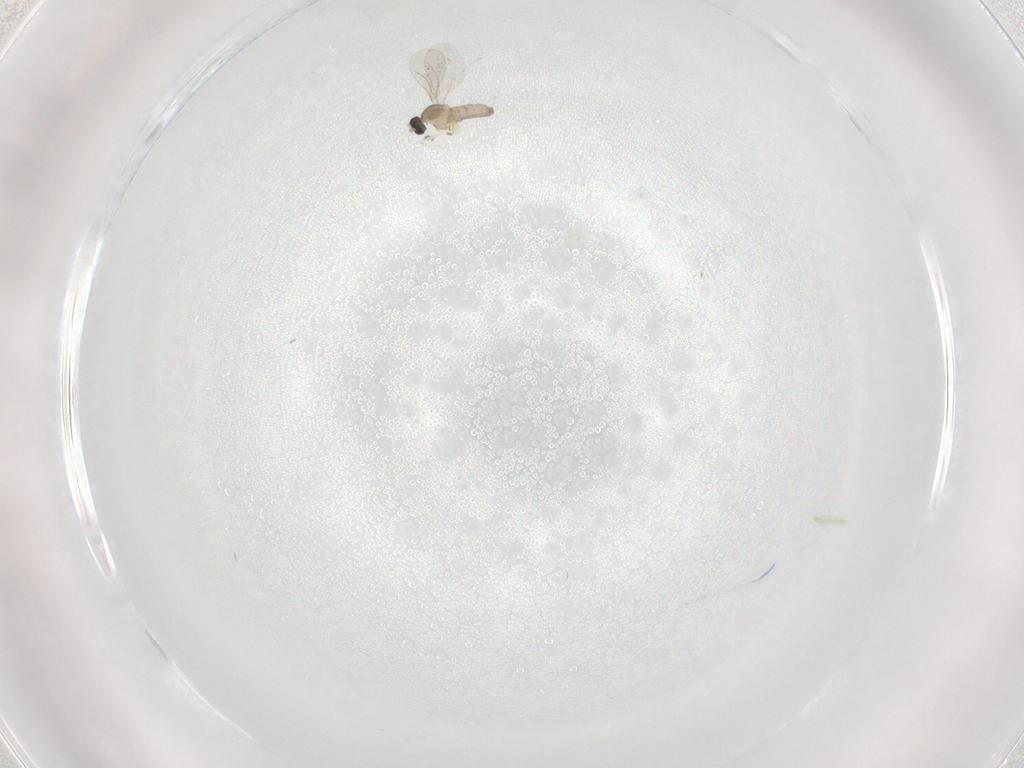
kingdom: Animalia
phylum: Arthropoda
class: Insecta
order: Diptera
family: Cecidomyiidae
